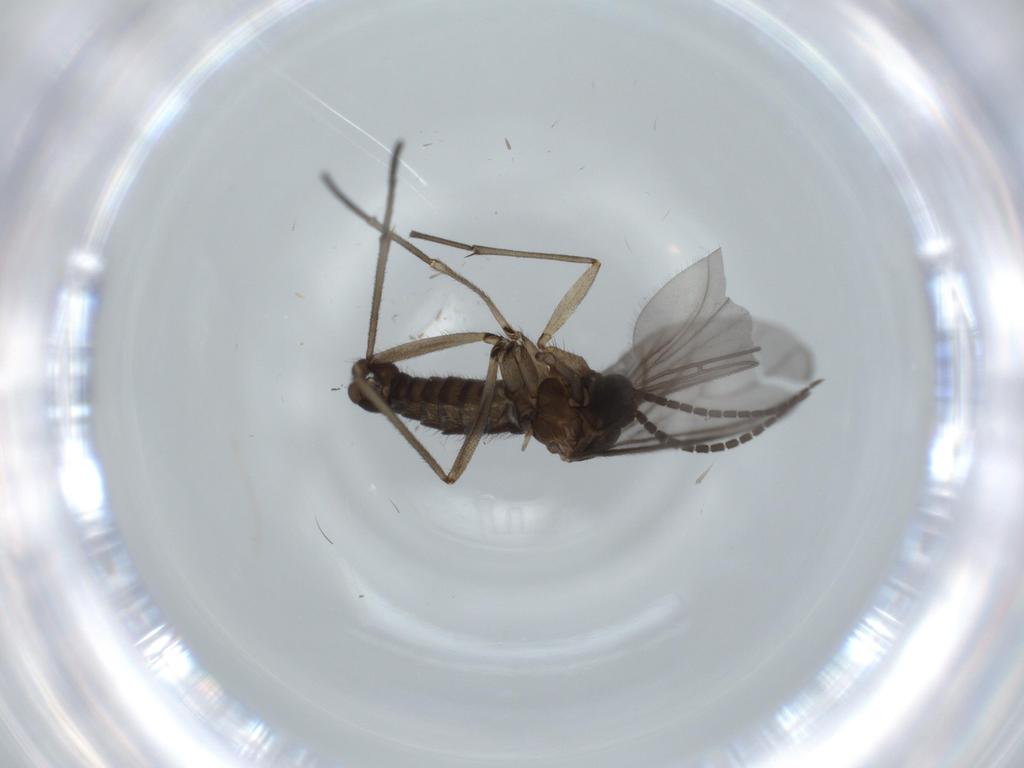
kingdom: Animalia
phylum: Arthropoda
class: Insecta
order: Diptera
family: Sciaridae
